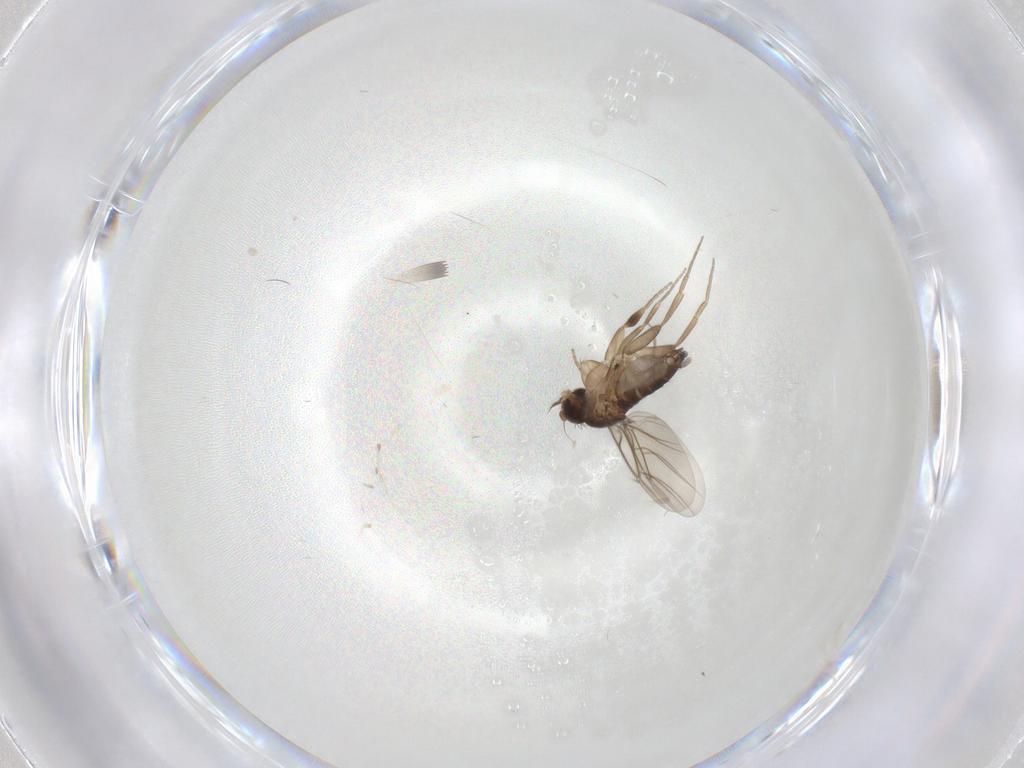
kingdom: Animalia
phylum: Arthropoda
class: Insecta
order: Diptera
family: Phoridae
